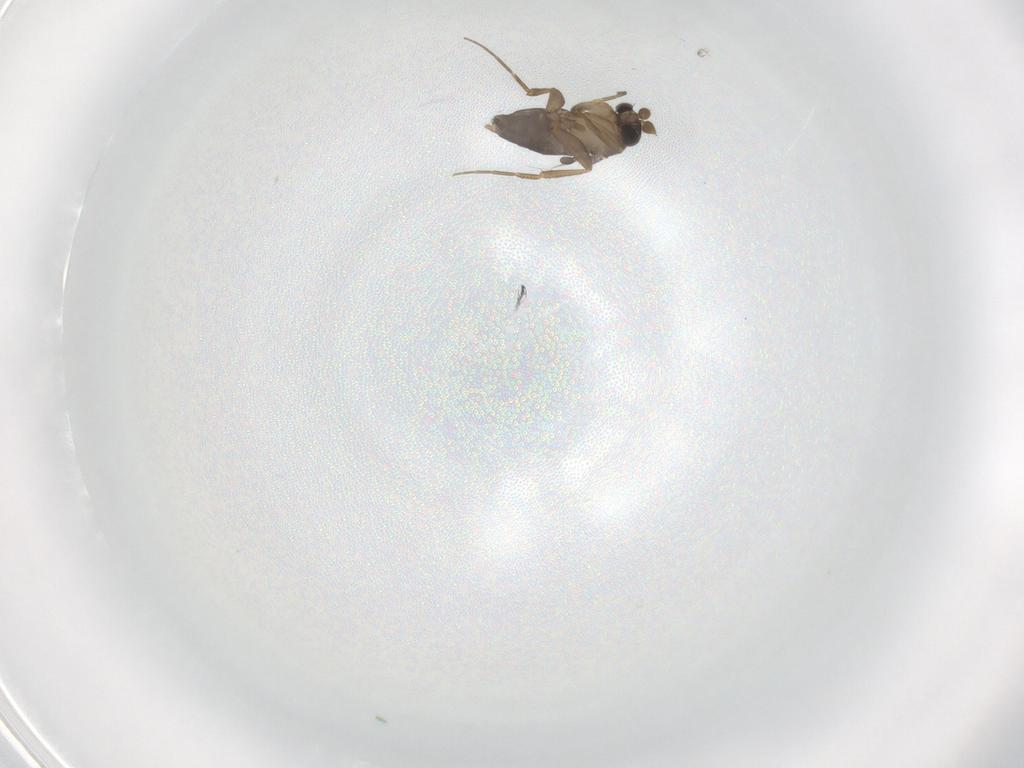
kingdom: Animalia
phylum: Arthropoda
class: Insecta
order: Diptera
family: Phoridae
